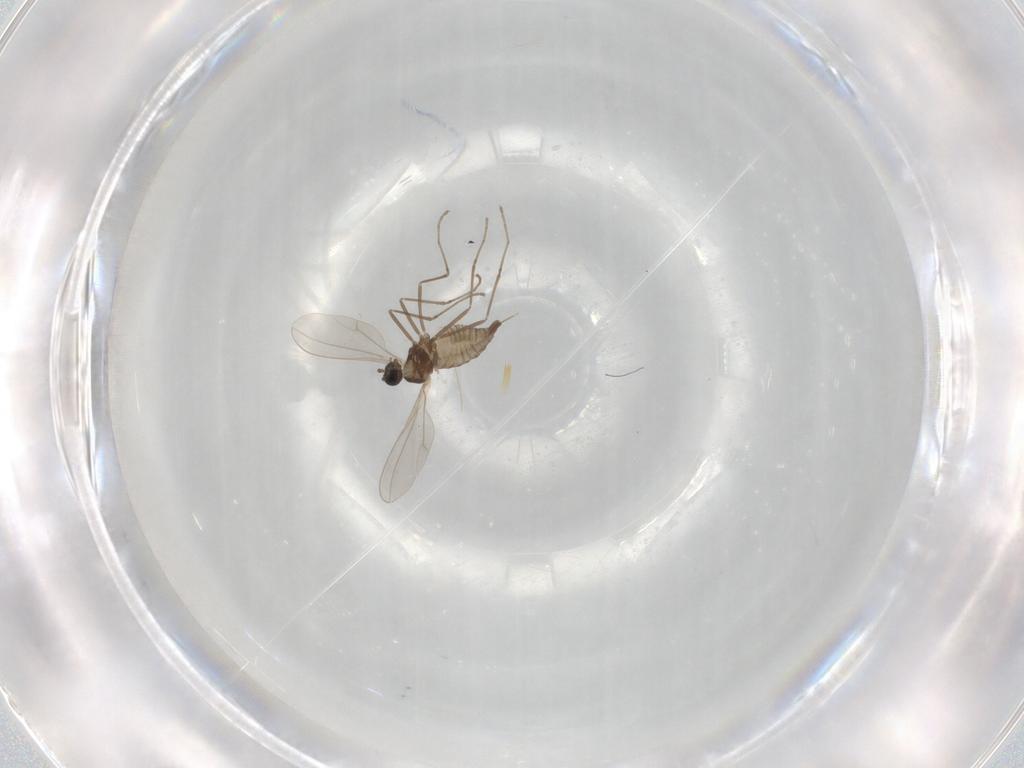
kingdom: Animalia
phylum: Arthropoda
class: Insecta
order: Diptera
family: Cecidomyiidae
